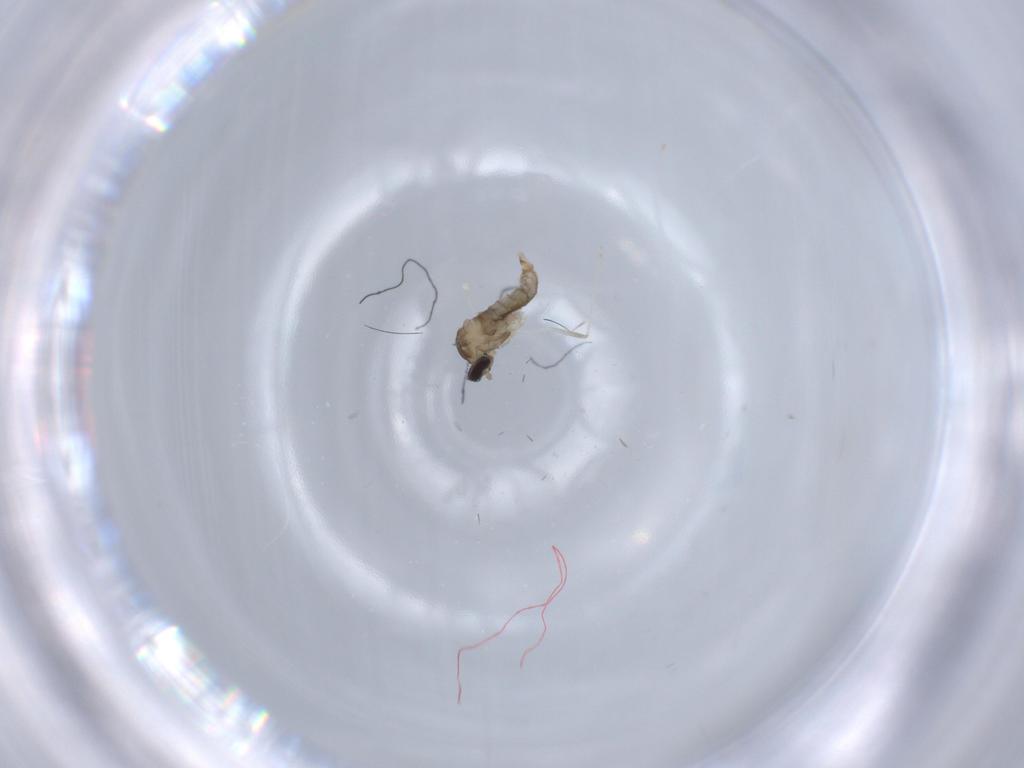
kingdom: Animalia
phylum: Arthropoda
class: Insecta
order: Diptera
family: Cecidomyiidae
